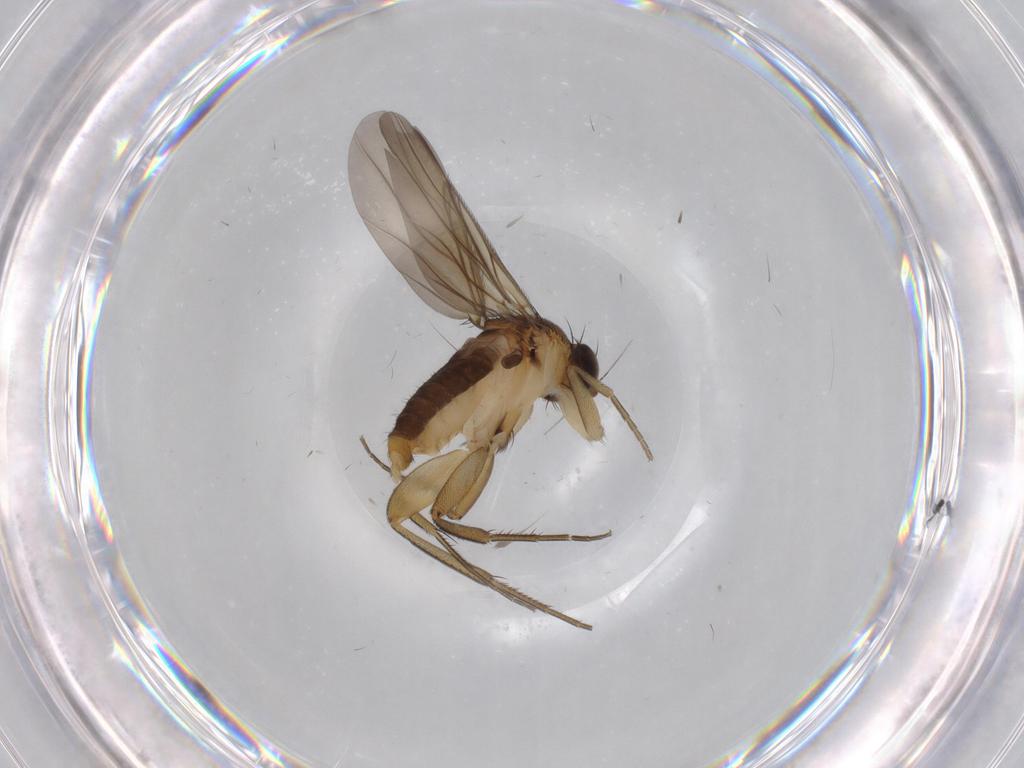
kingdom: Animalia
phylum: Arthropoda
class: Insecta
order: Diptera
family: Phoridae
